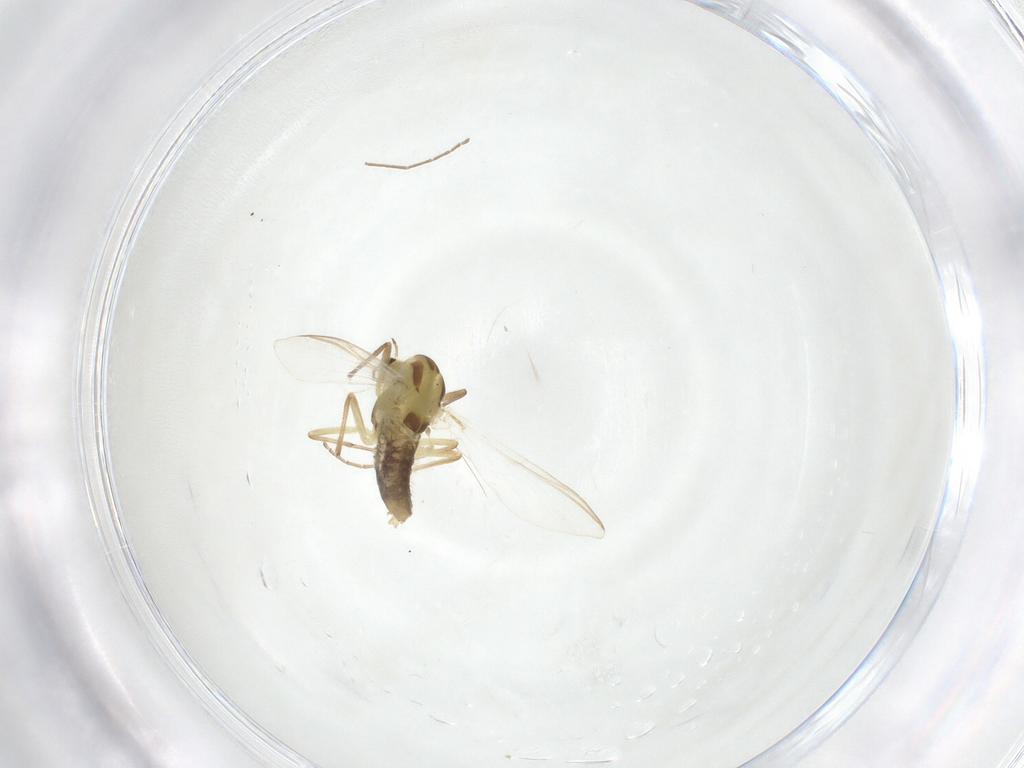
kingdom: Animalia
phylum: Arthropoda
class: Insecta
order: Diptera
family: Chironomidae
